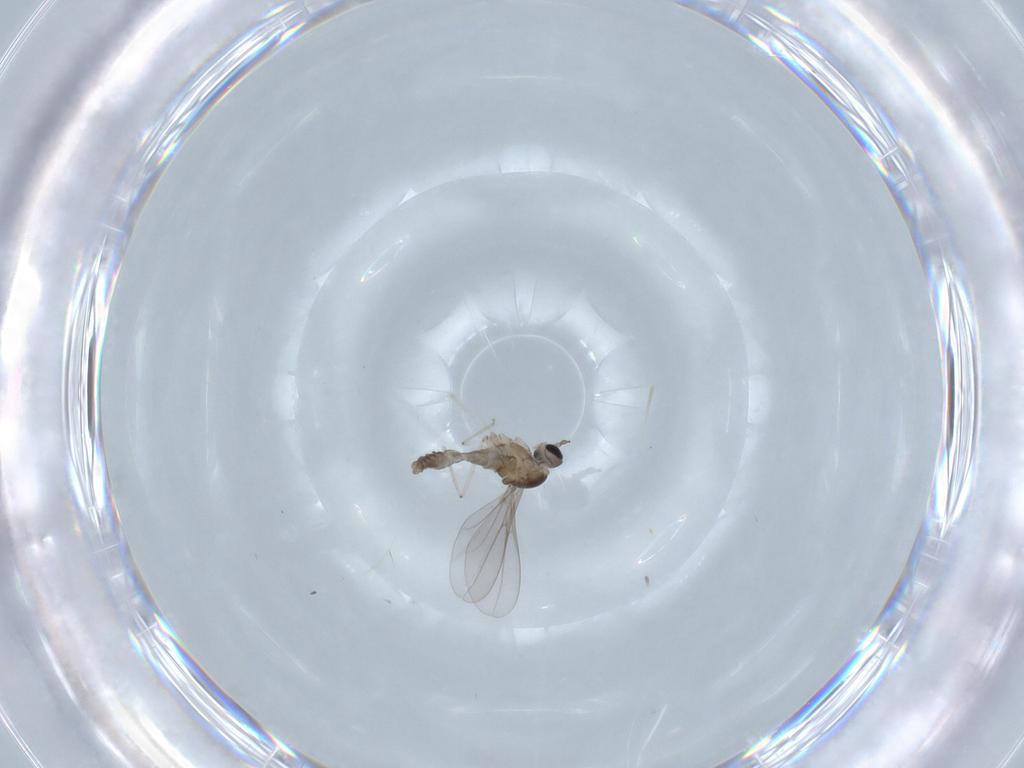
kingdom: Animalia
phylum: Arthropoda
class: Insecta
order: Diptera
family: Cecidomyiidae
